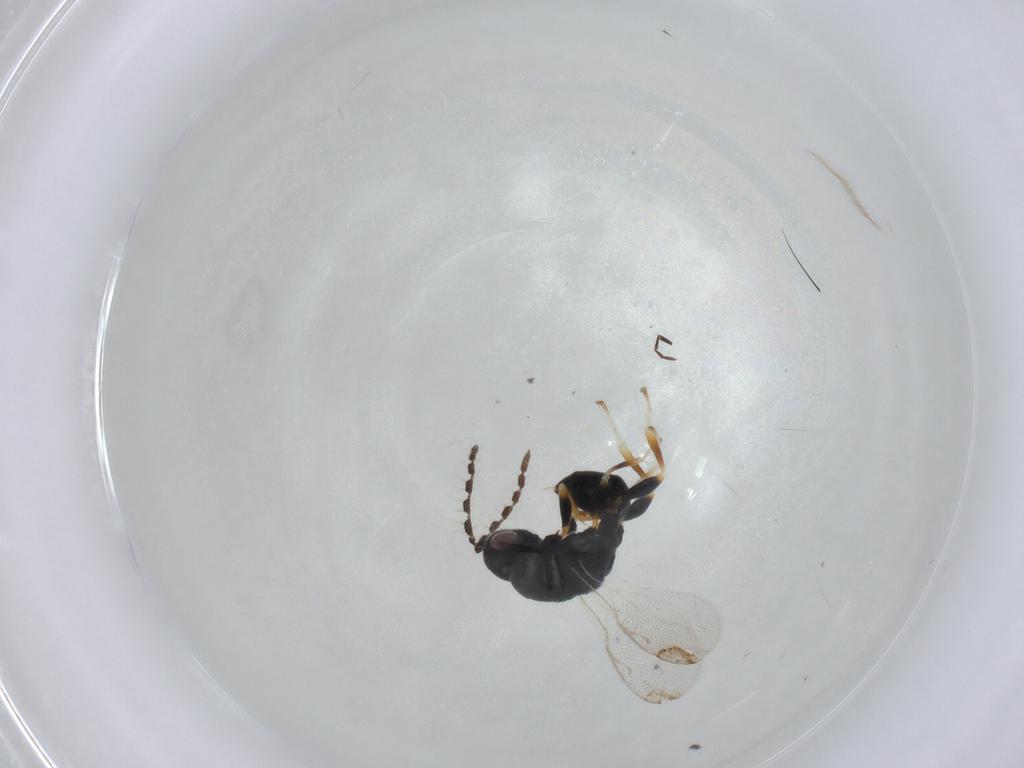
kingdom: Animalia
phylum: Arthropoda
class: Insecta
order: Hymenoptera
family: Eurytomidae
